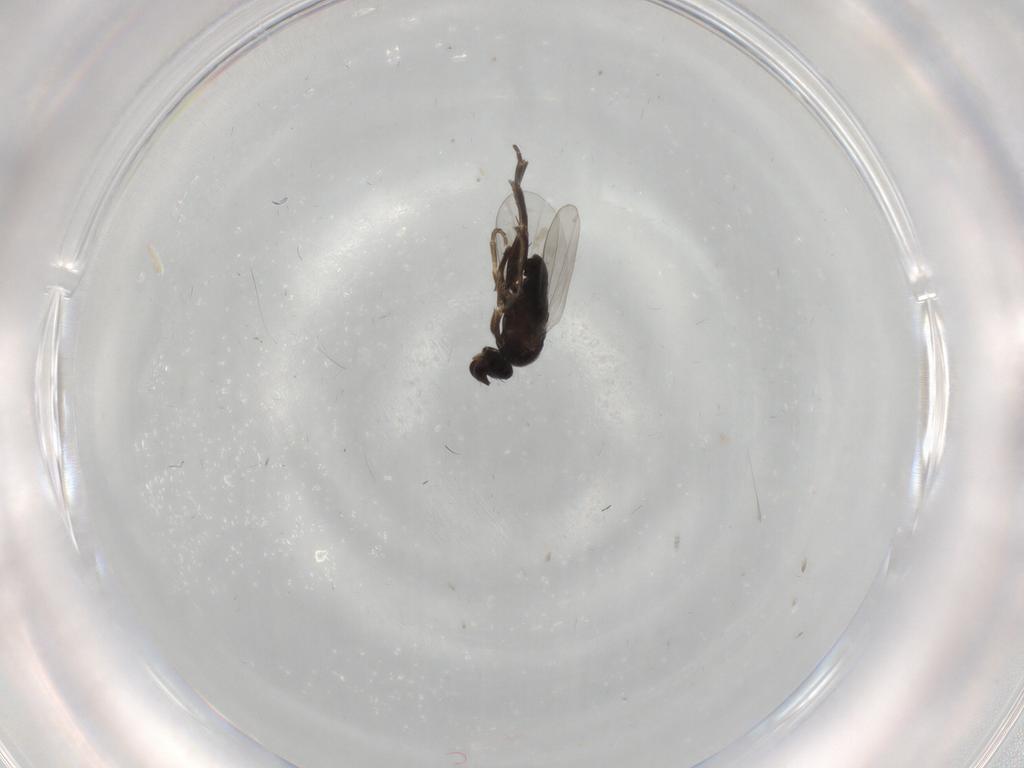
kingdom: Animalia
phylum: Arthropoda
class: Insecta
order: Diptera
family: Phoridae
